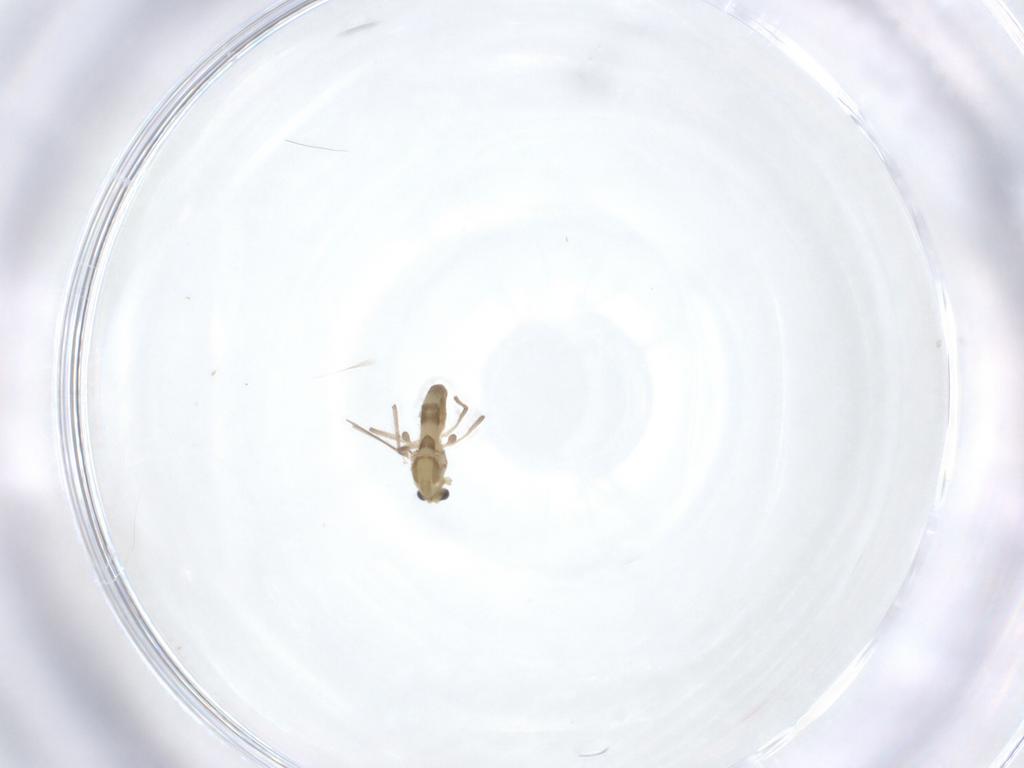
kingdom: Animalia
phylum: Arthropoda
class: Insecta
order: Diptera
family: Chironomidae
